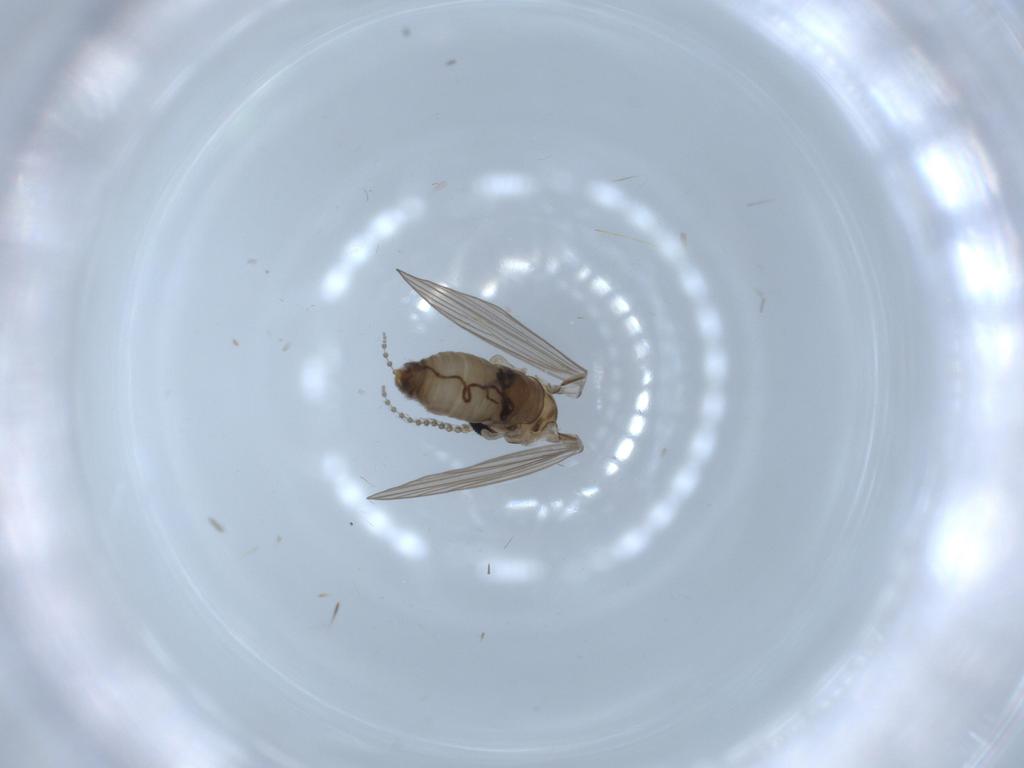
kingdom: Animalia
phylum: Arthropoda
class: Insecta
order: Diptera
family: Psychodidae
